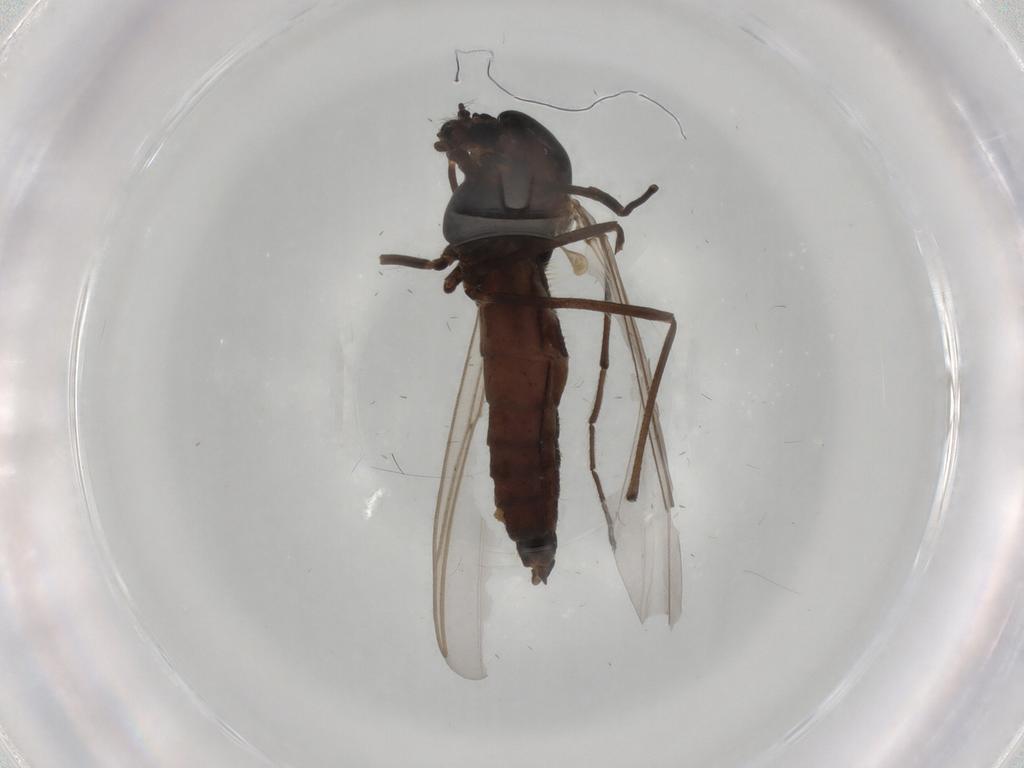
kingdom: Animalia
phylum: Arthropoda
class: Insecta
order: Diptera
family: Chironomidae
